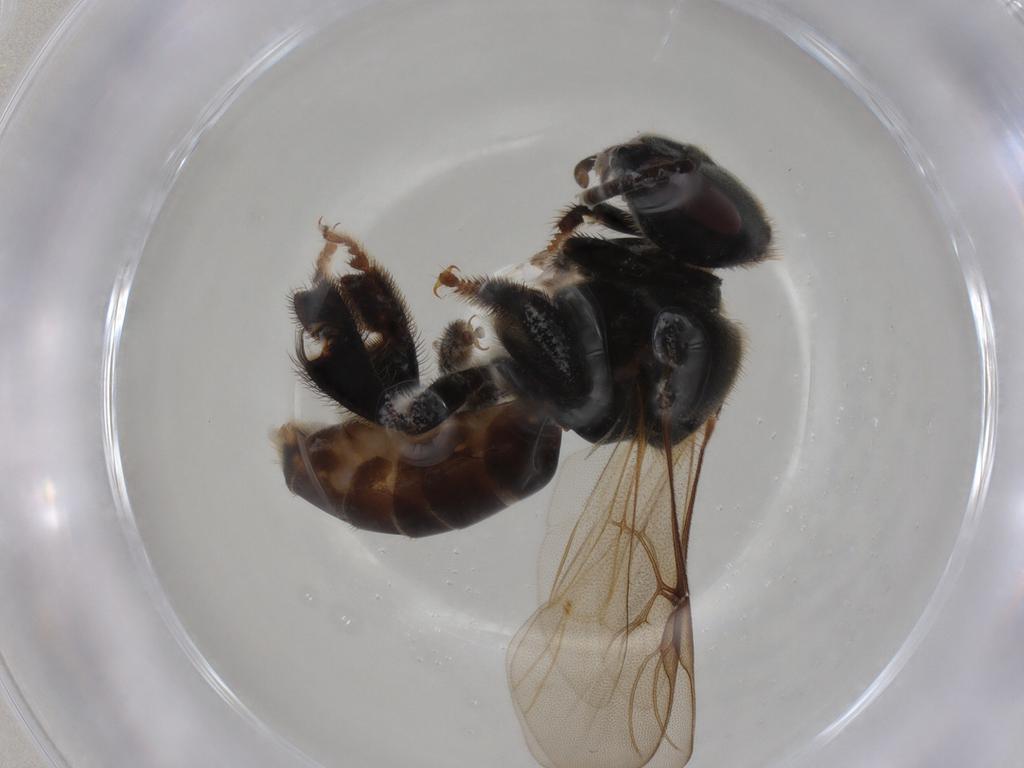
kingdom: Animalia
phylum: Arthropoda
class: Insecta
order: Hymenoptera
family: Apidae
